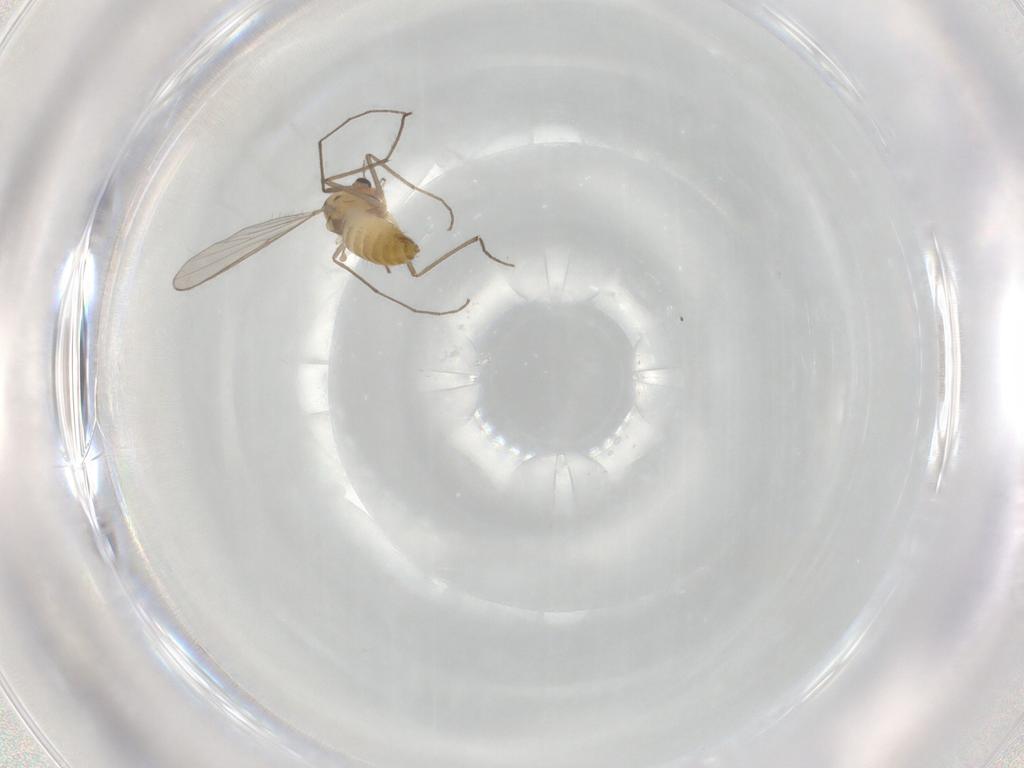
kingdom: Animalia
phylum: Arthropoda
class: Insecta
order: Diptera
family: Chironomidae
